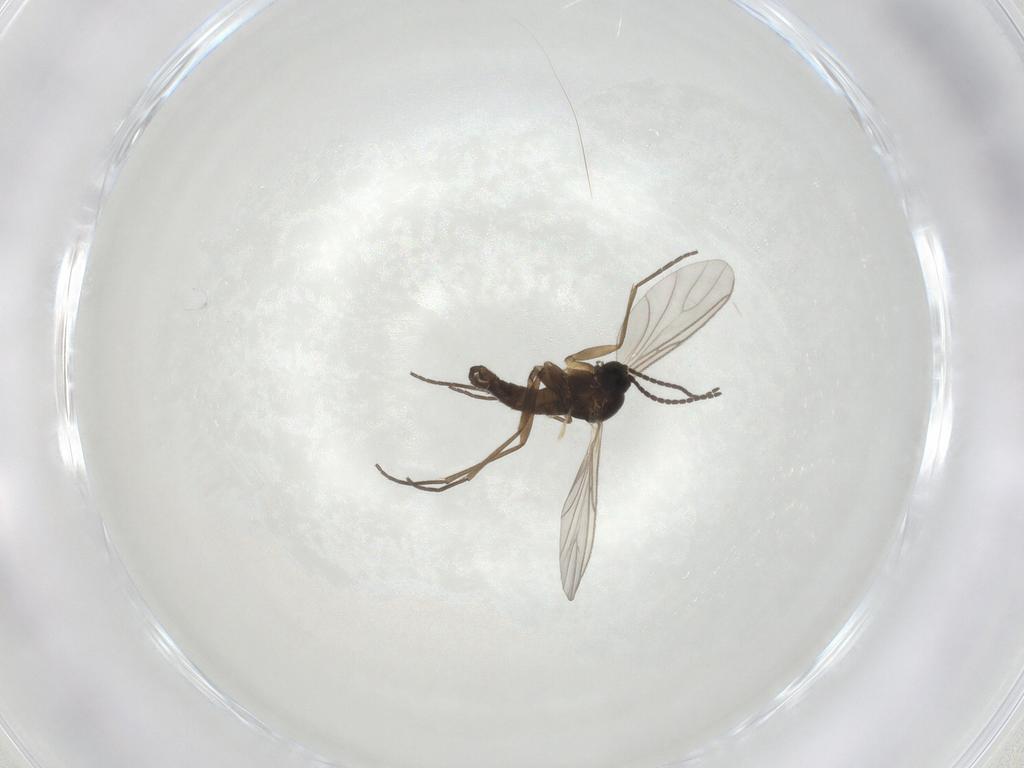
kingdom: Animalia
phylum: Arthropoda
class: Insecta
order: Diptera
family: Sciaridae
